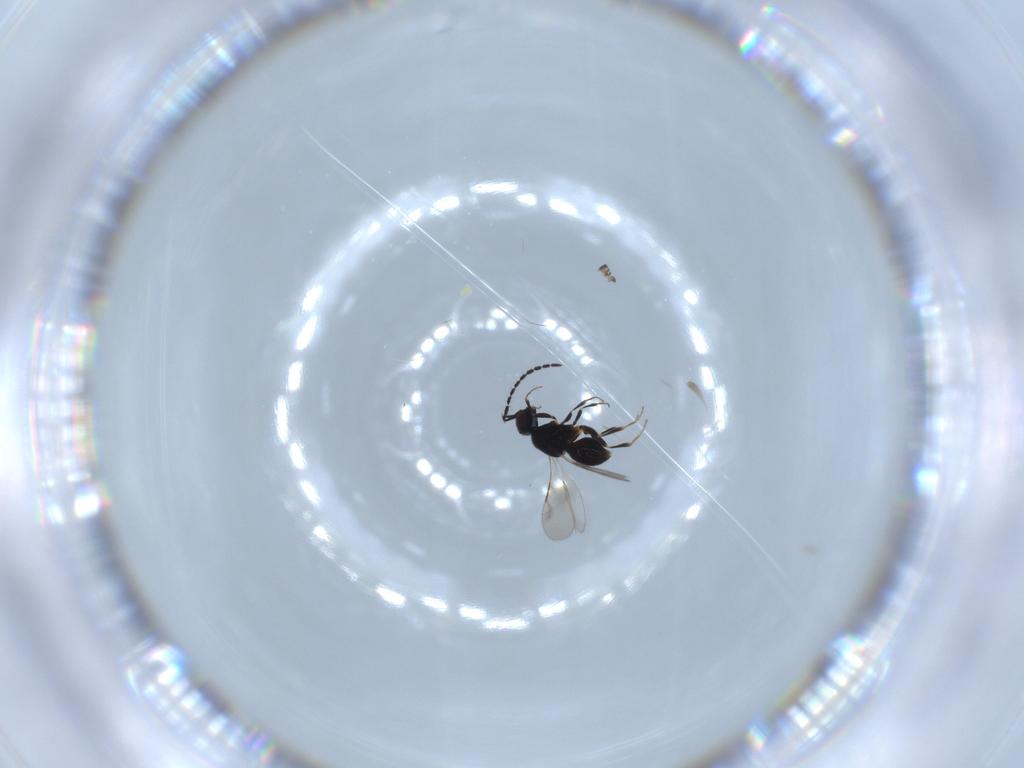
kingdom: Animalia
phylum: Arthropoda
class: Insecta
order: Hymenoptera
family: Ceraphronidae
